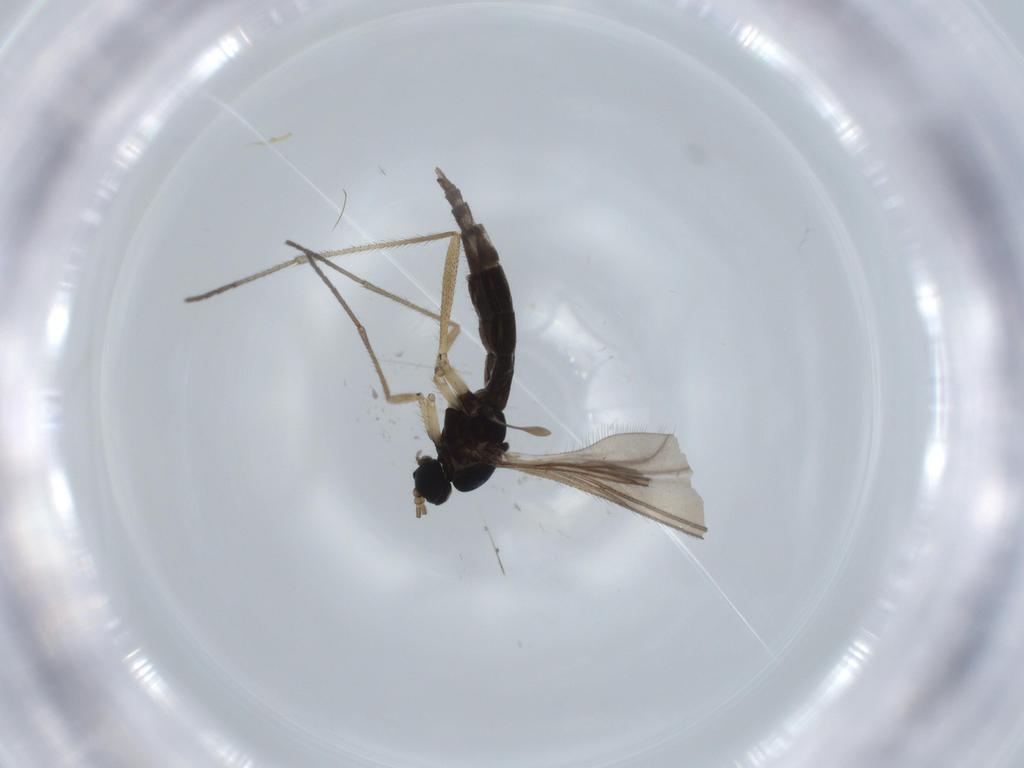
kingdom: Animalia
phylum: Arthropoda
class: Insecta
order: Diptera
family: Sciaridae
